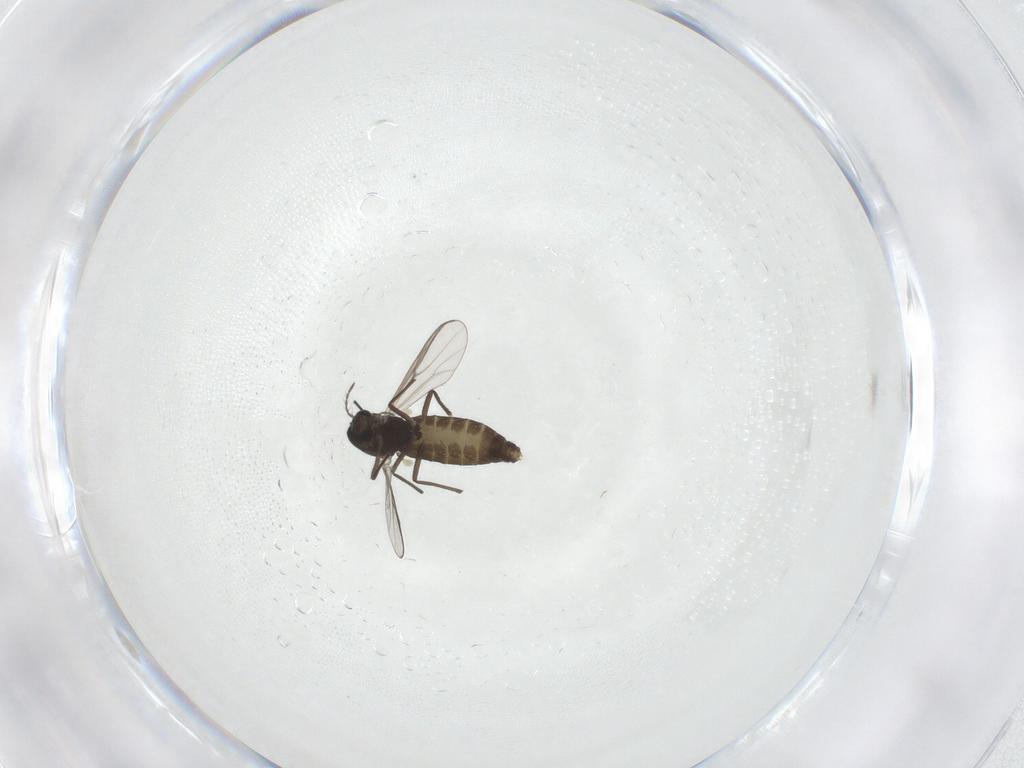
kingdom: Animalia
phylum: Arthropoda
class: Insecta
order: Diptera
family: Chironomidae
